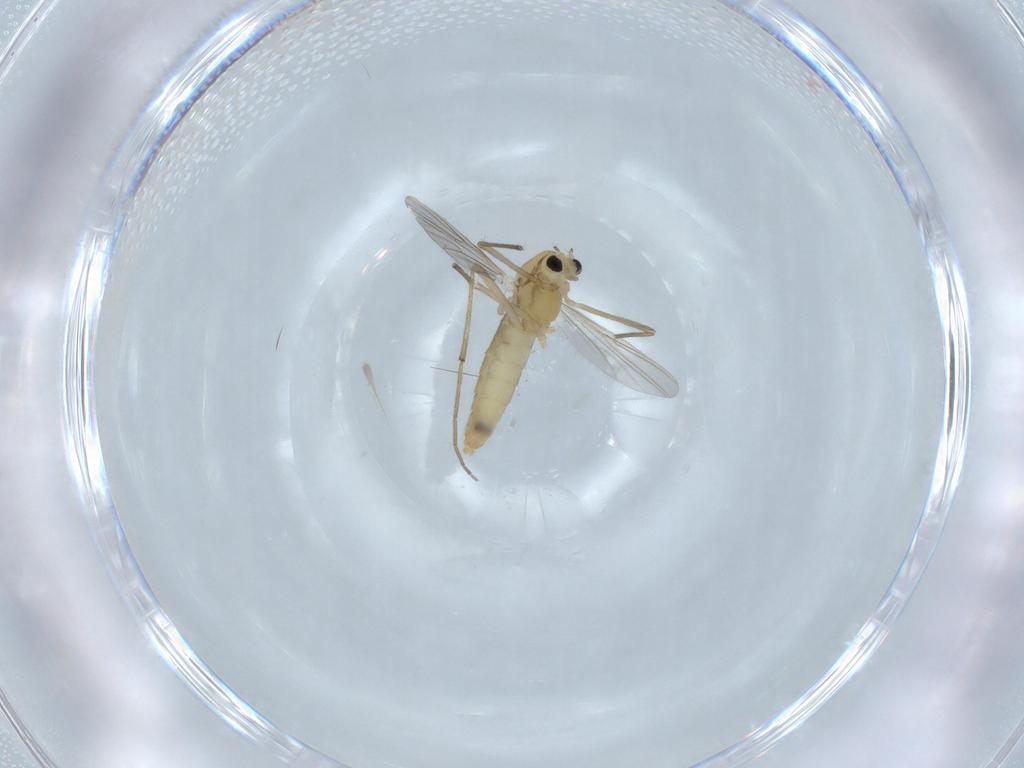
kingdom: Animalia
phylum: Arthropoda
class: Insecta
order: Diptera
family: Chironomidae
